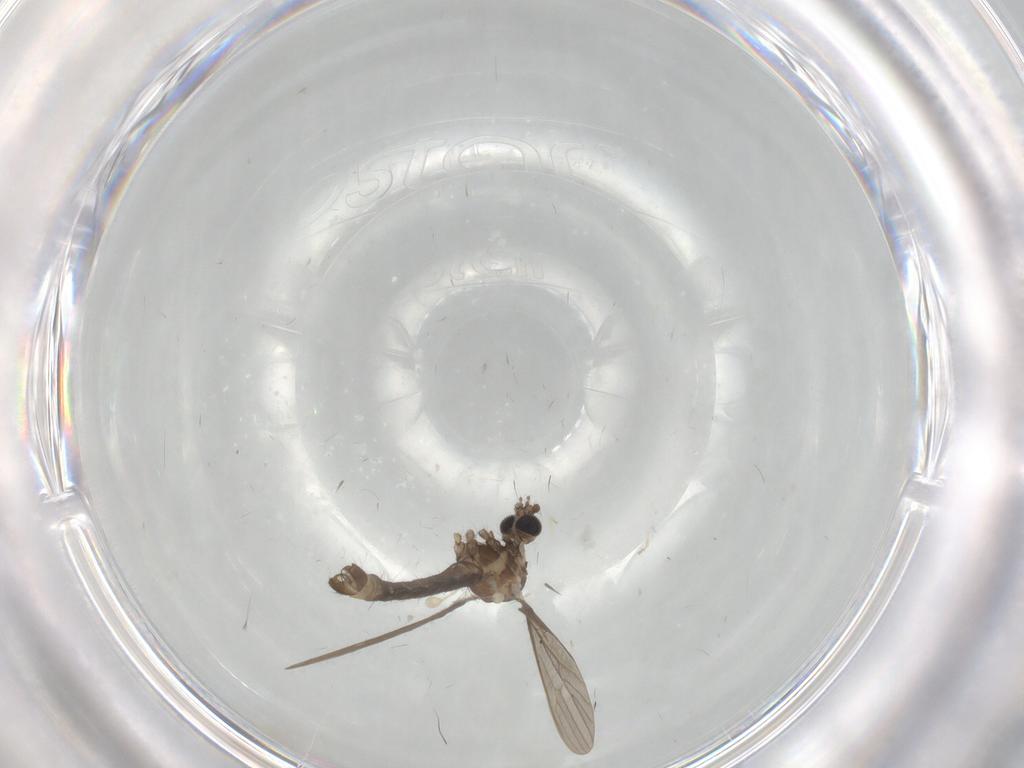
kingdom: Animalia
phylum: Arthropoda
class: Insecta
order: Diptera
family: Limoniidae
